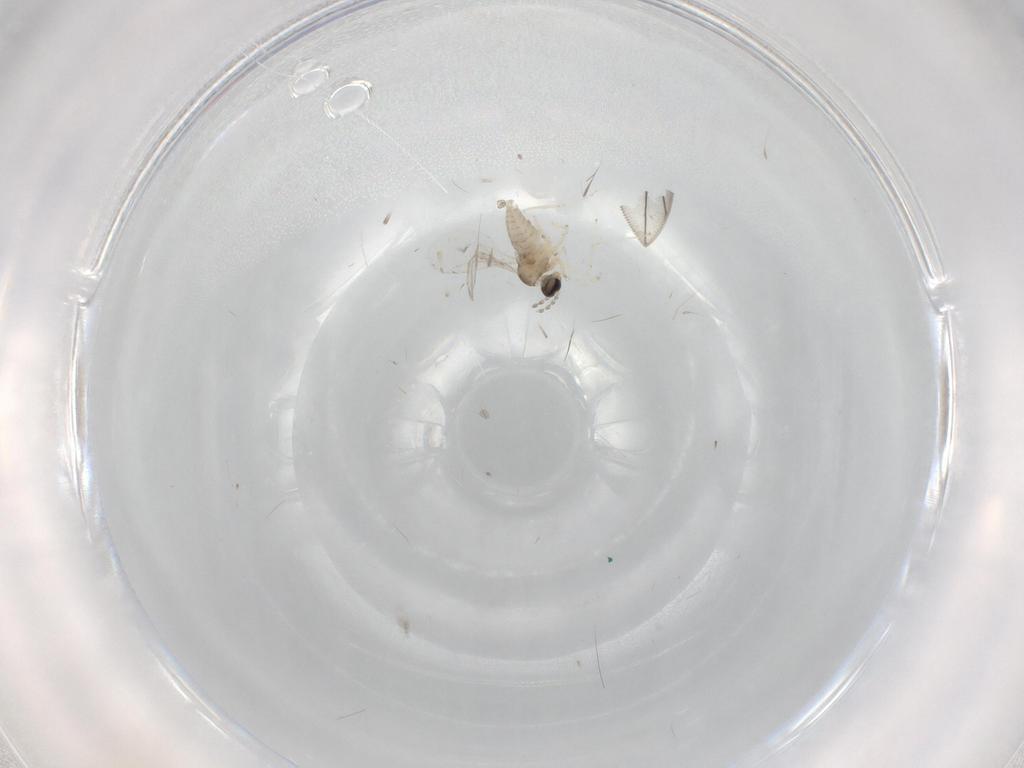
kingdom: Animalia
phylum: Arthropoda
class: Insecta
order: Diptera
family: Cecidomyiidae
